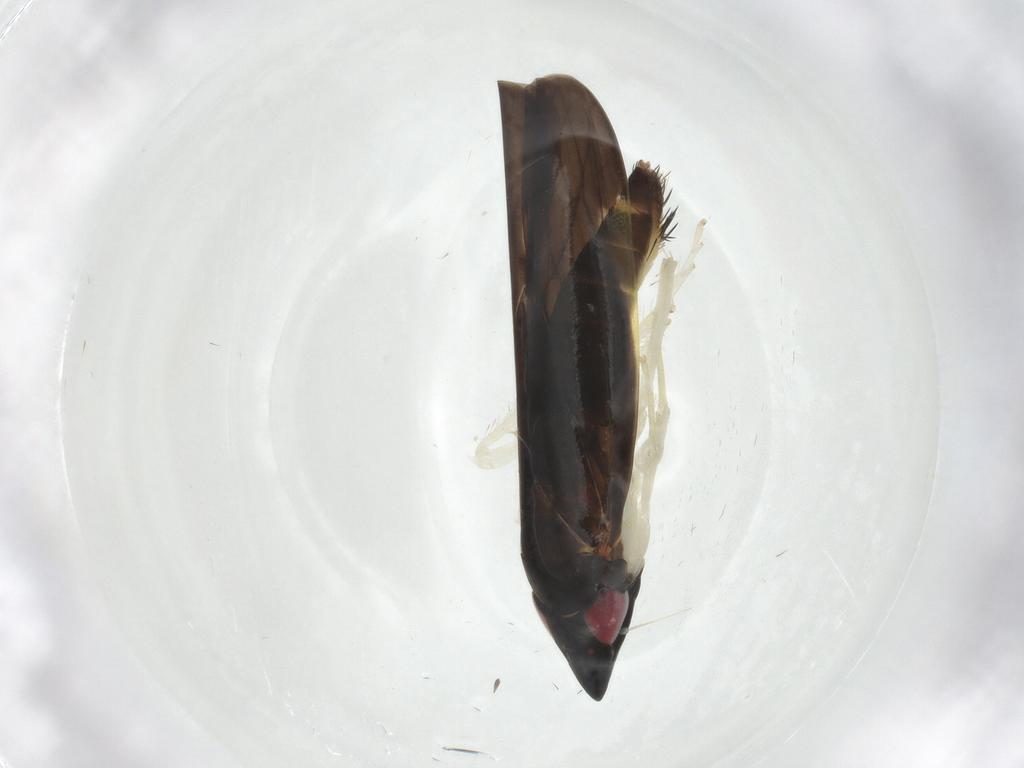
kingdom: Animalia
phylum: Arthropoda
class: Insecta
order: Hemiptera
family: Cicadellidae
